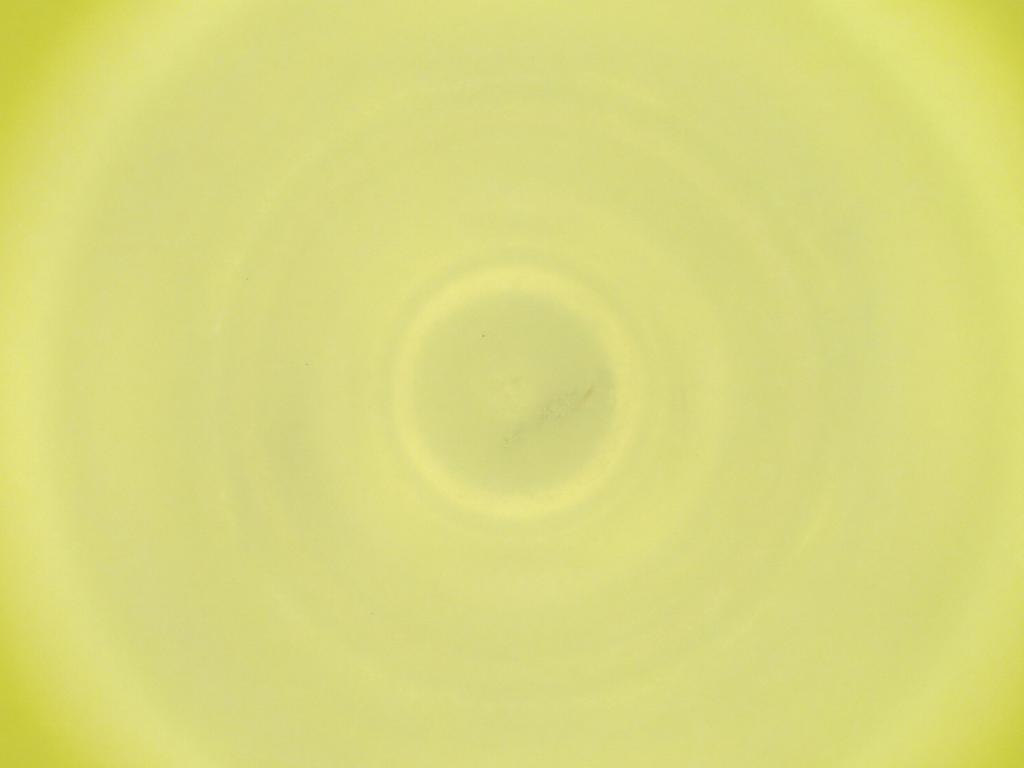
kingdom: Animalia
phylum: Arthropoda
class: Insecta
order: Diptera
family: Cecidomyiidae
